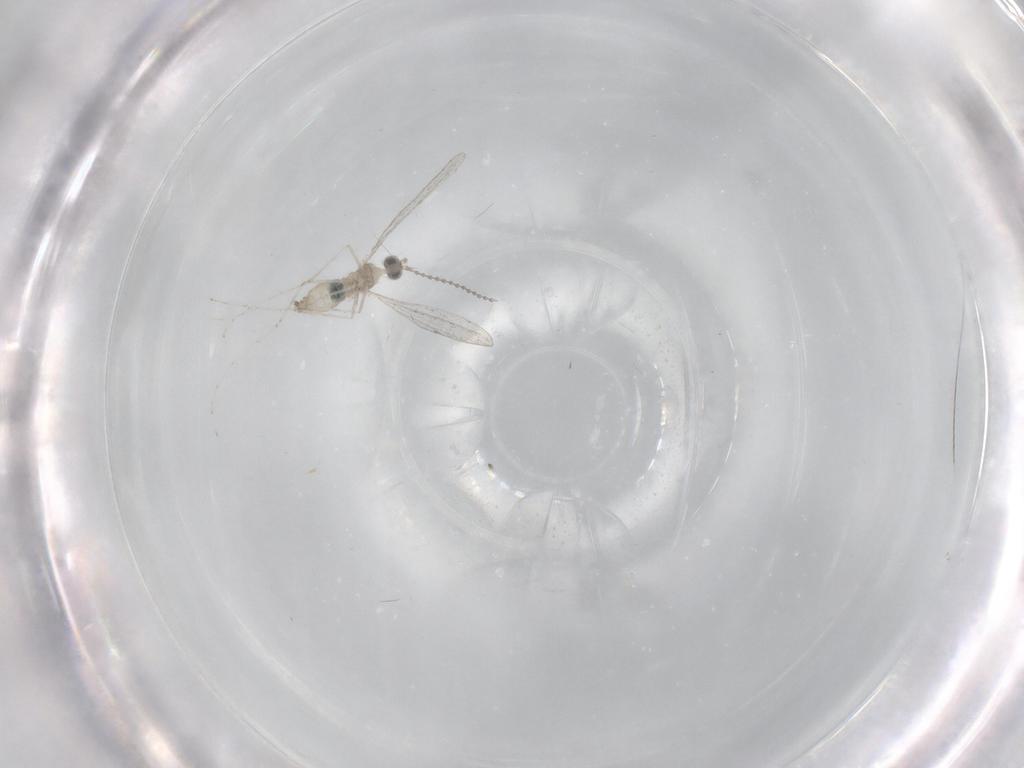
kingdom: Animalia
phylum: Arthropoda
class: Insecta
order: Diptera
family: Cecidomyiidae
